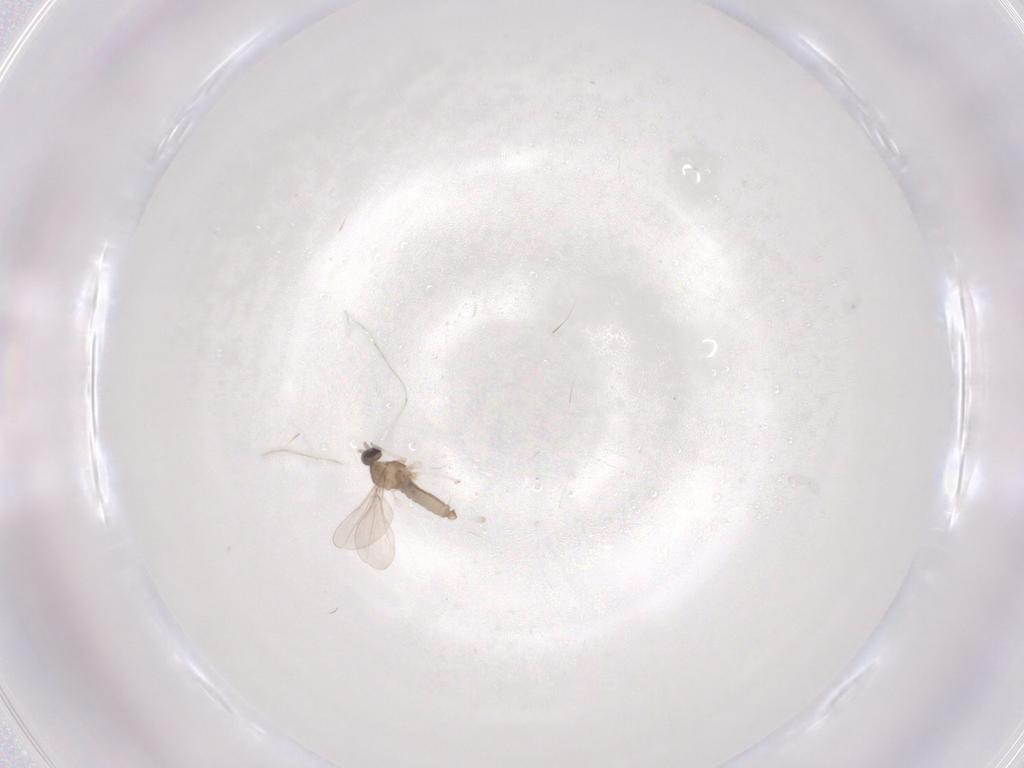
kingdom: Animalia
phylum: Arthropoda
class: Insecta
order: Diptera
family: Cecidomyiidae
